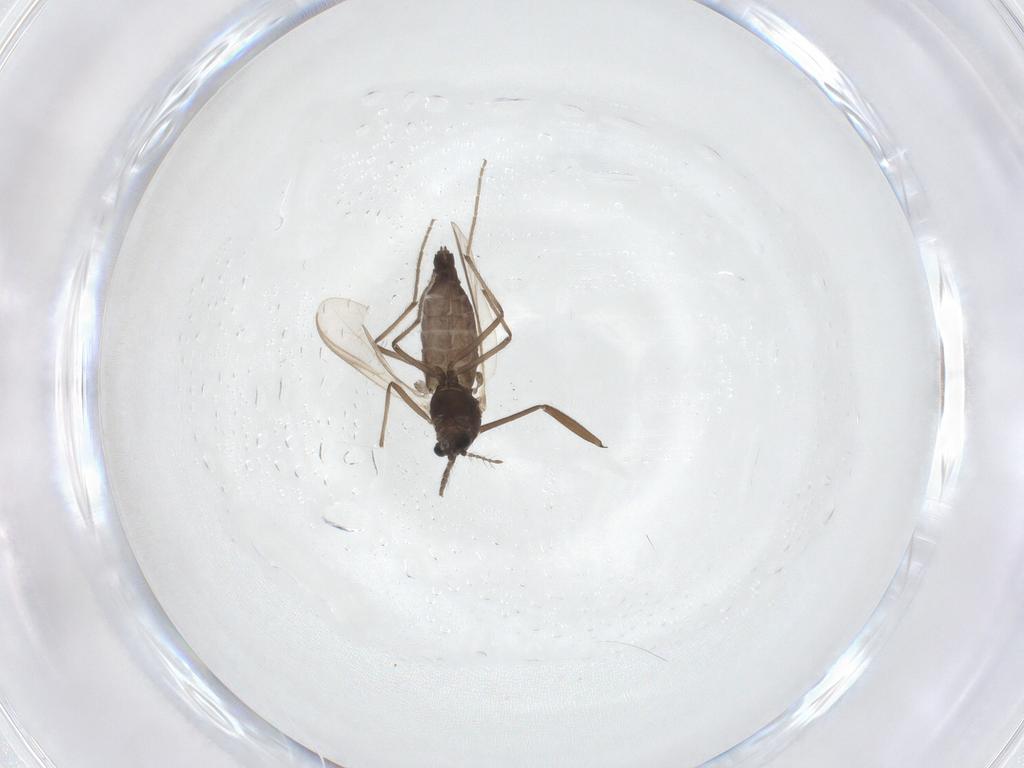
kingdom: Animalia
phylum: Arthropoda
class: Insecta
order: Diptera
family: Sciaridae
